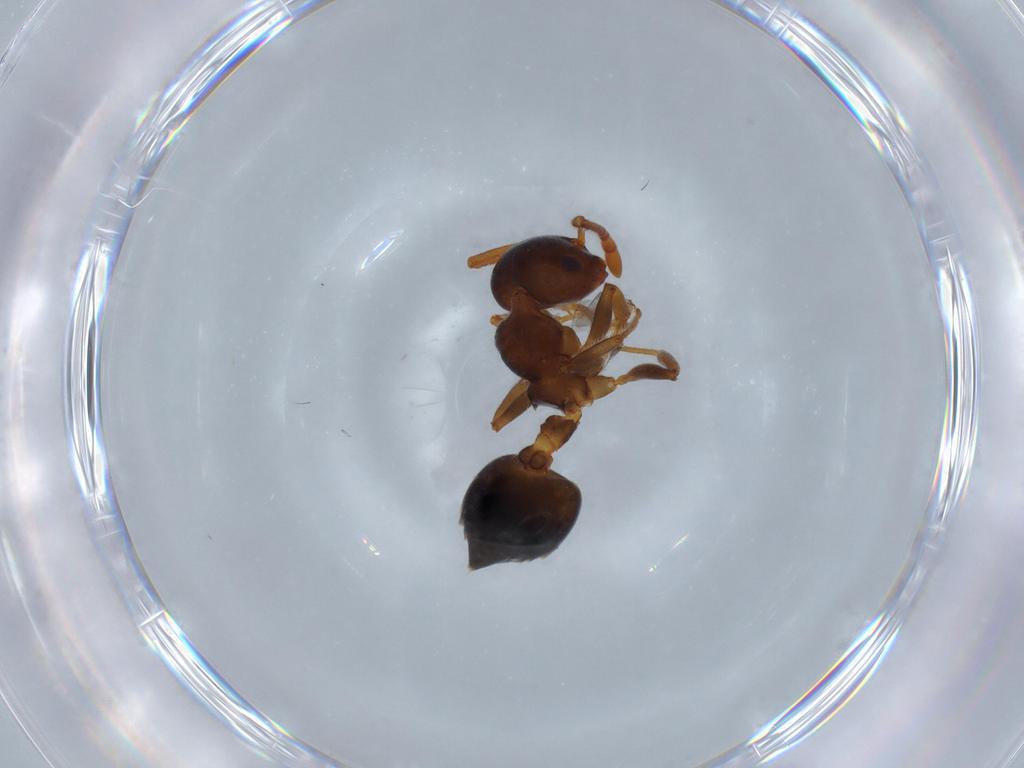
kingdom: Animalia
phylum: Arthropoda
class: Insecta
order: Hymenoptera
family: Formicidae
